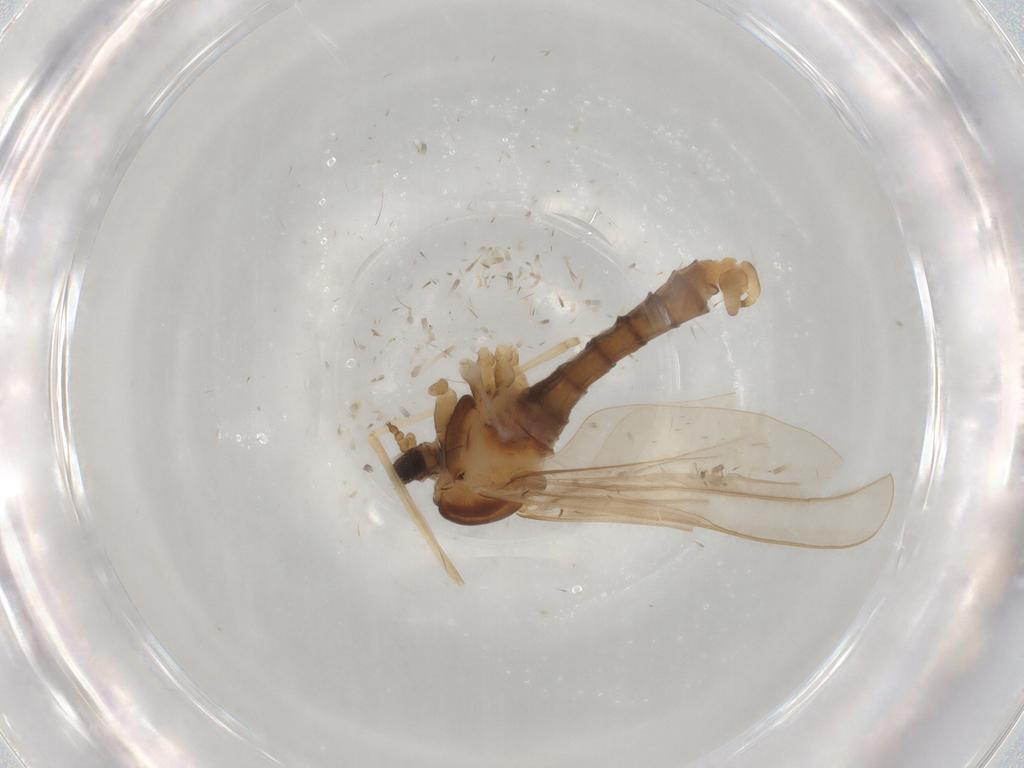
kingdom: Animalia
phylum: Arthropoda
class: Insecta
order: Diptera
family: Cecidomyiidae
